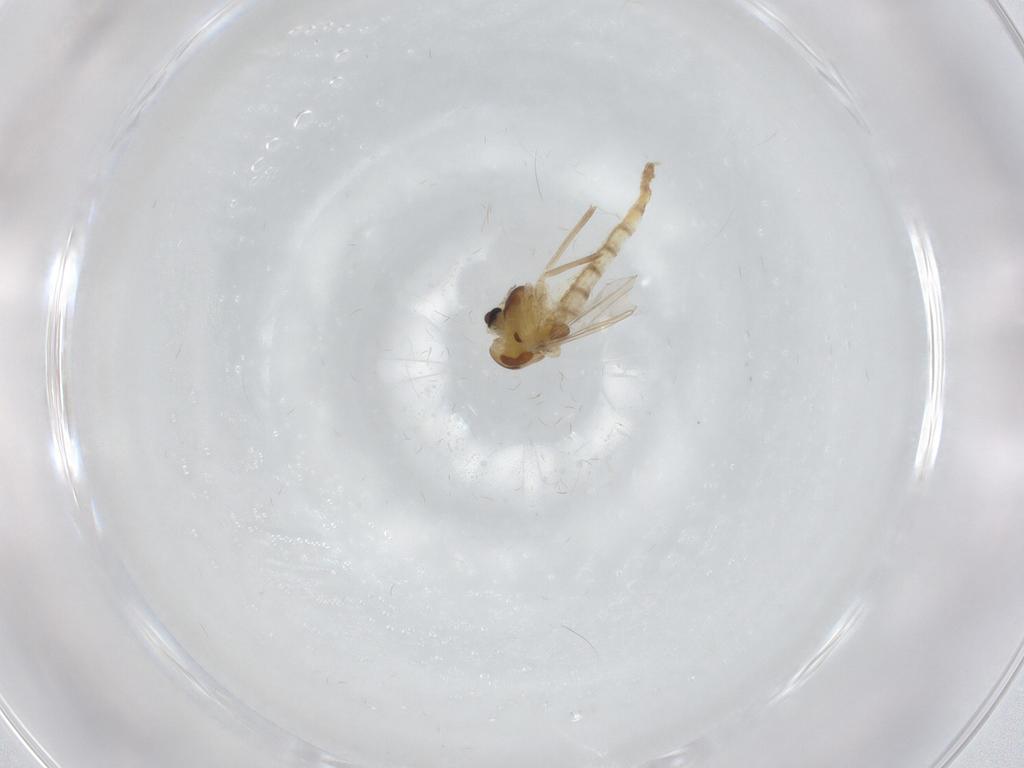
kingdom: Animalia
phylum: Arthropoda
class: Insecta
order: Diptera
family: Chironomidae
